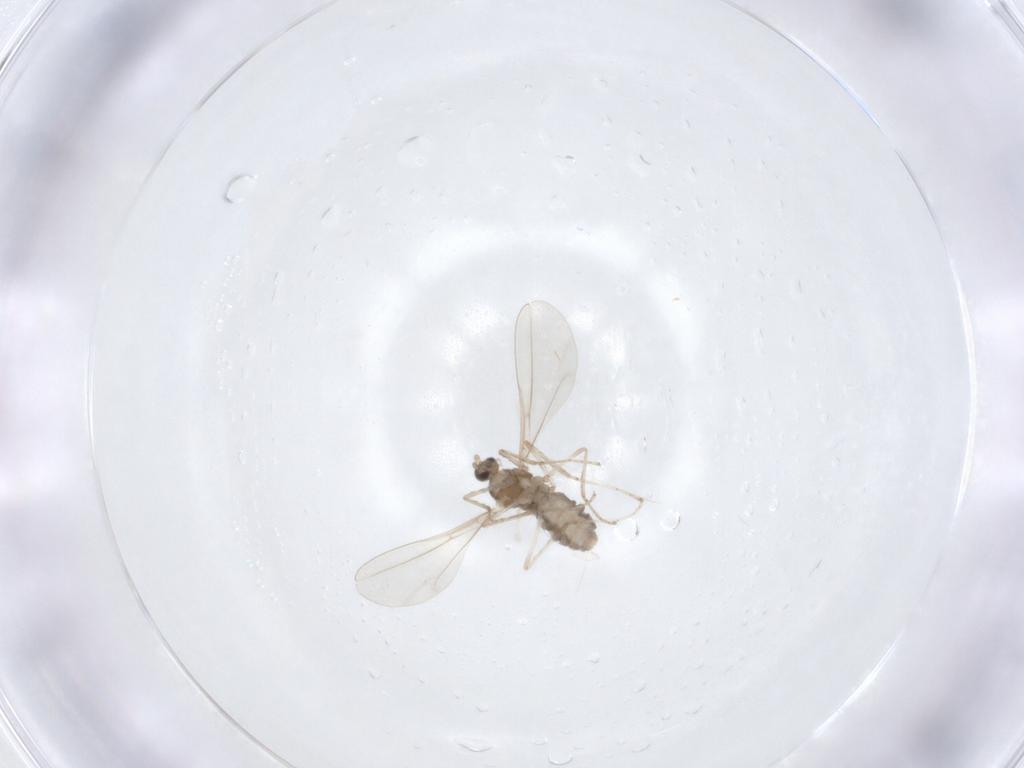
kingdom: Animalia
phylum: Arthropoda
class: Insecta
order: Diptera
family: Cecidomyiidae
